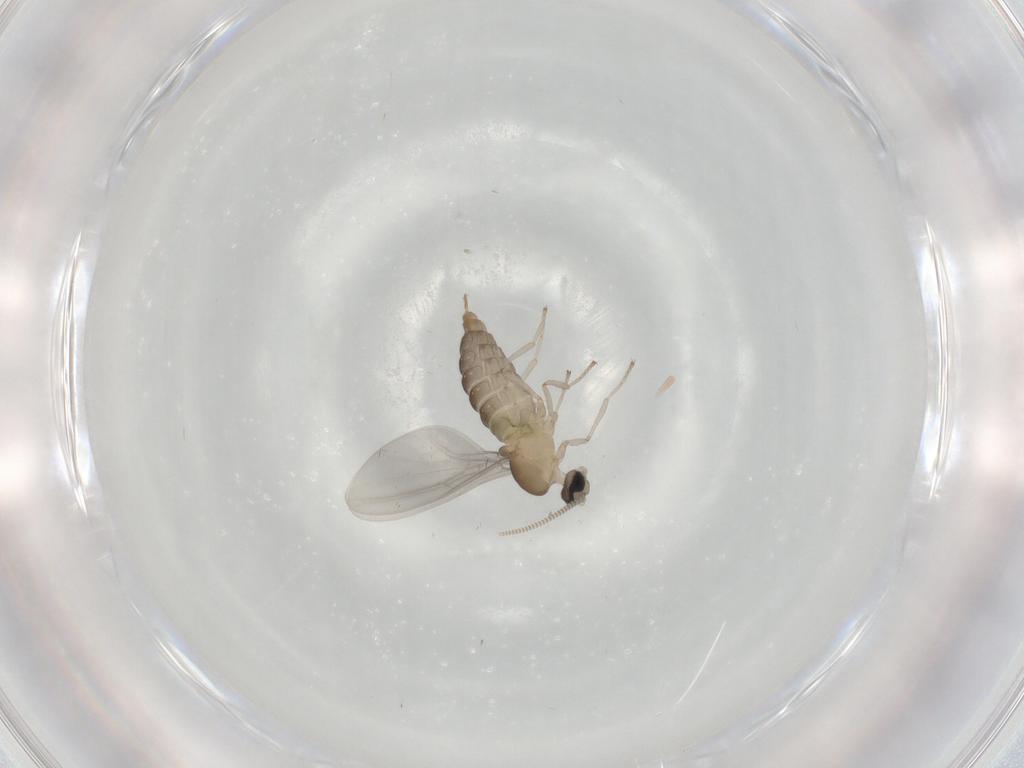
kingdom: Animalia
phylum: Arthropoda
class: Insecta
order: Diptera
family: Cecidomyiidae
